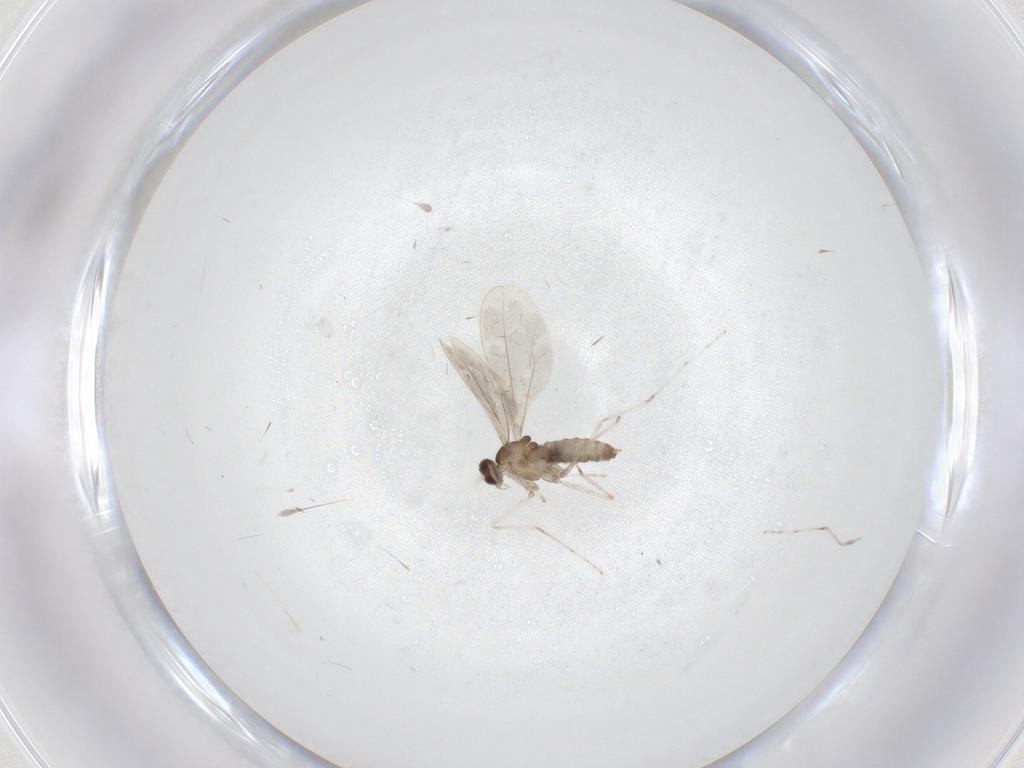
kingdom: Animalia
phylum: Arthropoda
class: Insecta
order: Diptera
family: Cecidomyiidae
